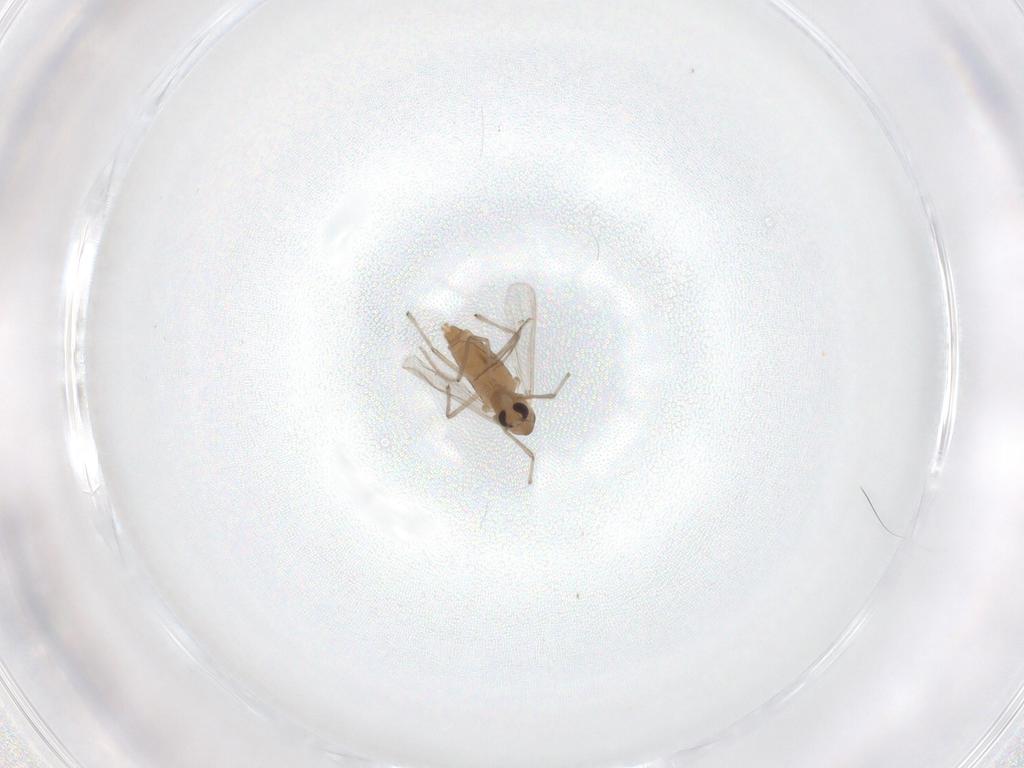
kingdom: Animalia
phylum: Arthropoda
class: Insecta
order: Diptera
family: Chironomidae
